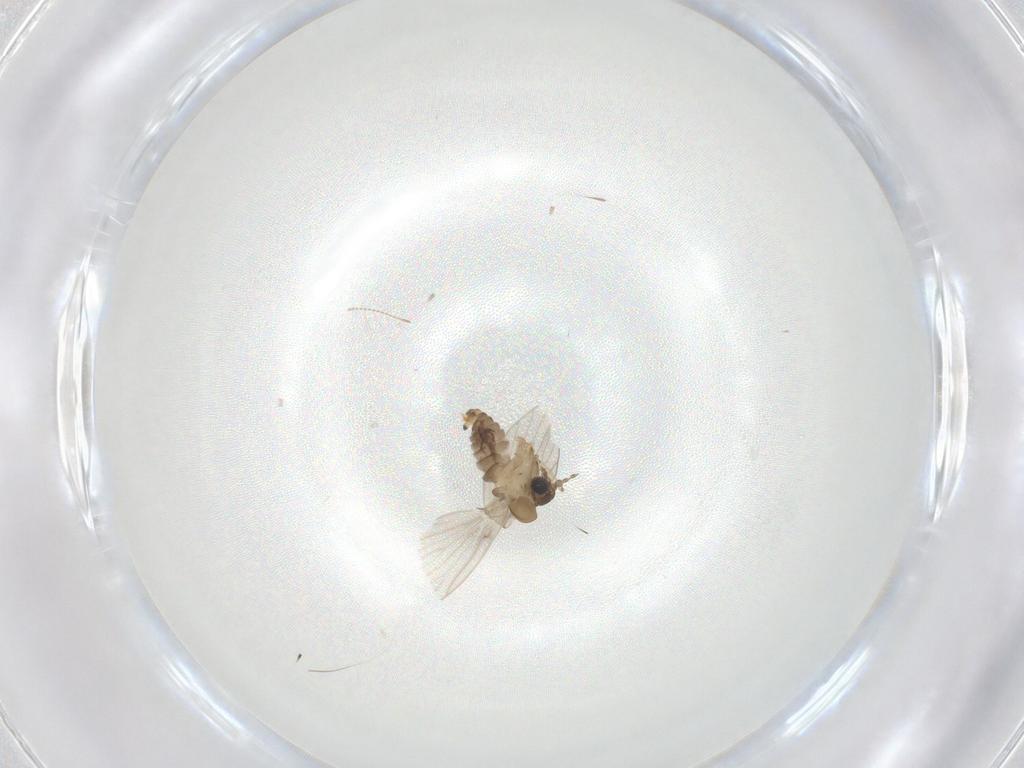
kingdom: Animalia
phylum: Arthropoda
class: Insecta
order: Diptera
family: Chironomidae
